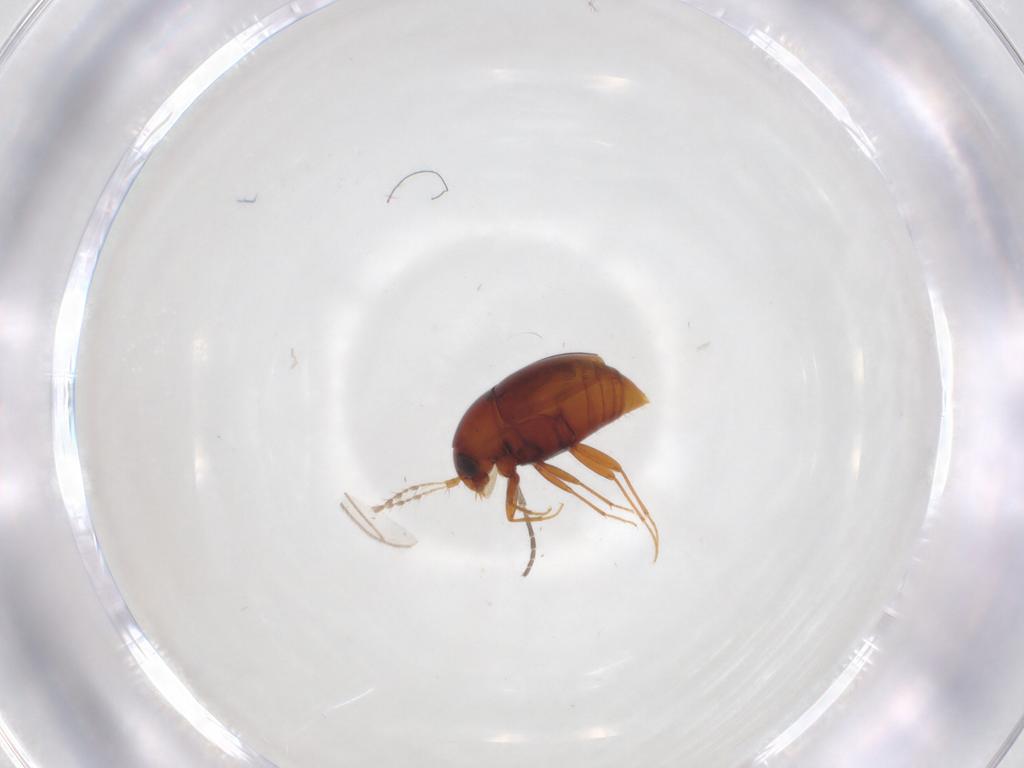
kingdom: Animalia
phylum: Arthropoda
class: Insecta
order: Coleoptera
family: Staphylinidae
